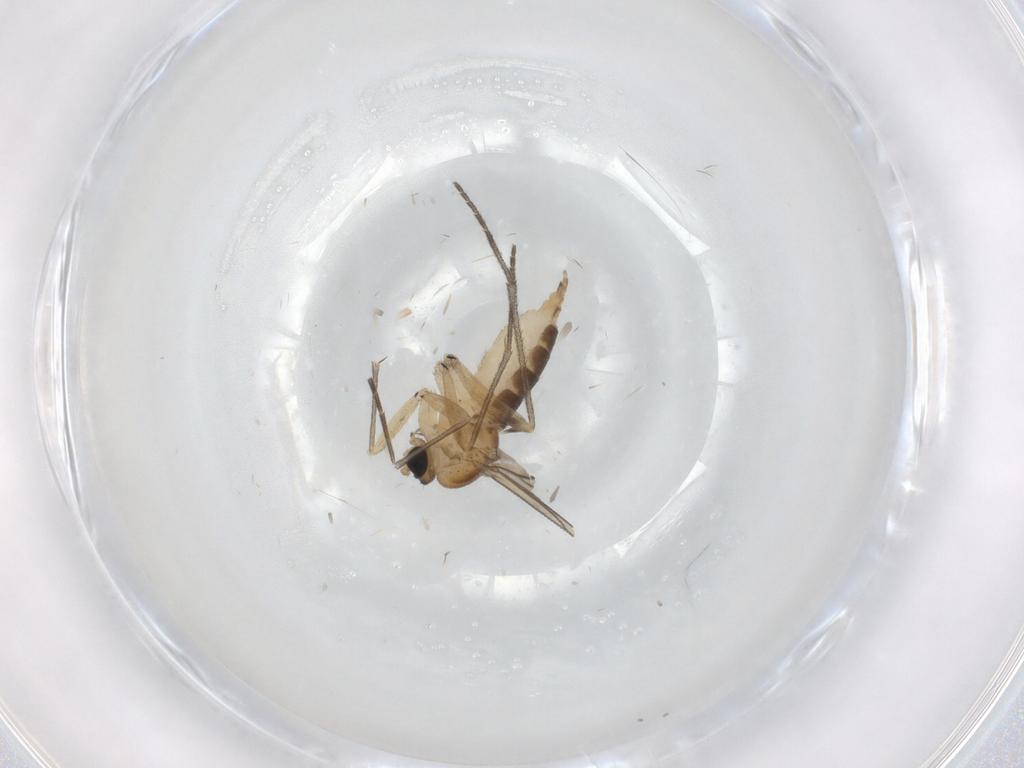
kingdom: Animalia
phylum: Arthropoda
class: Insecta
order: Diptera
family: Sciaridae
